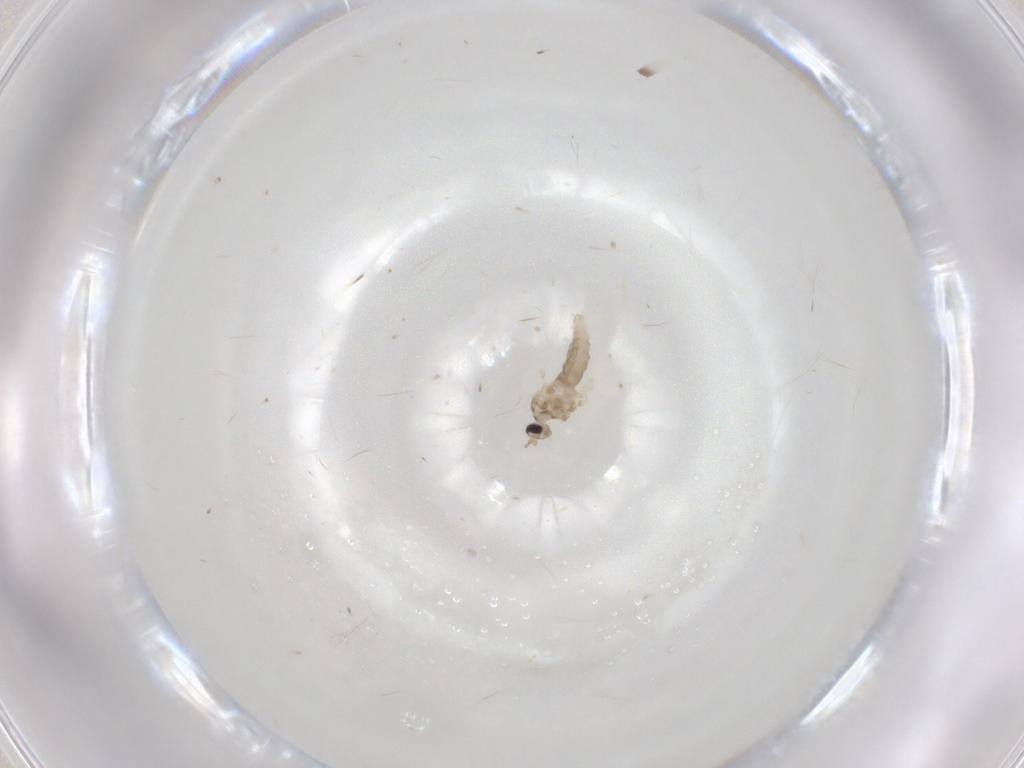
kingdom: Animalia
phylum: Arthropoda
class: Insecta
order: Diptera
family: Cecidomyiidae
